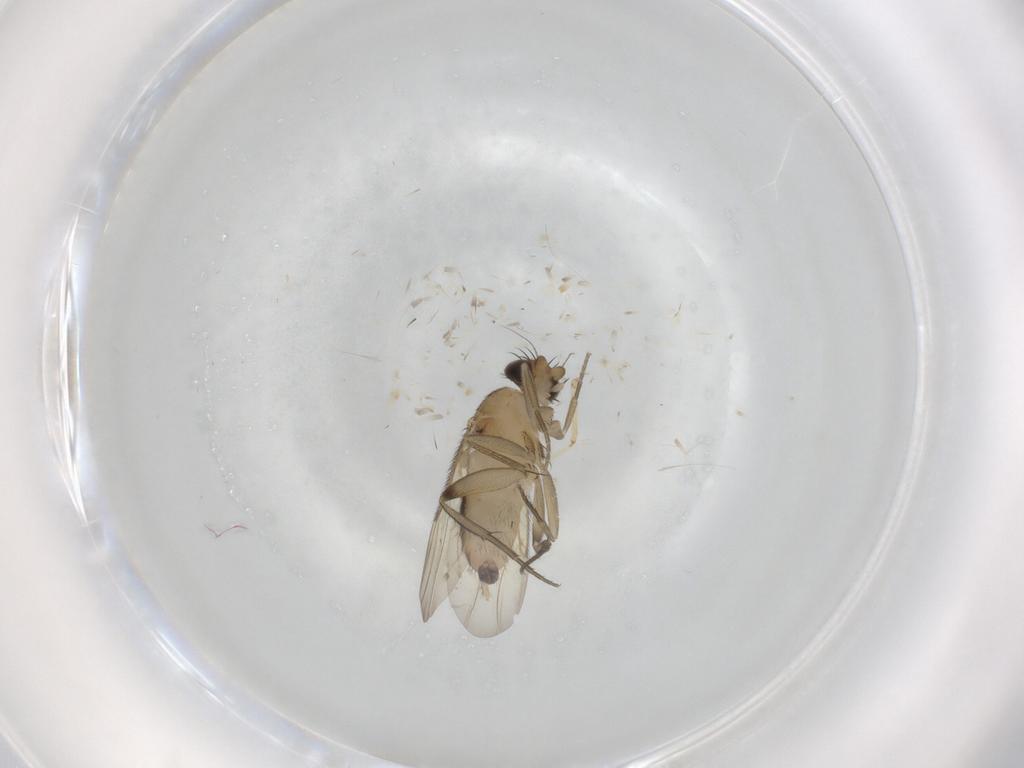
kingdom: Animalia
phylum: Arthropoda
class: Insecta
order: Diptera
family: Phoridae
